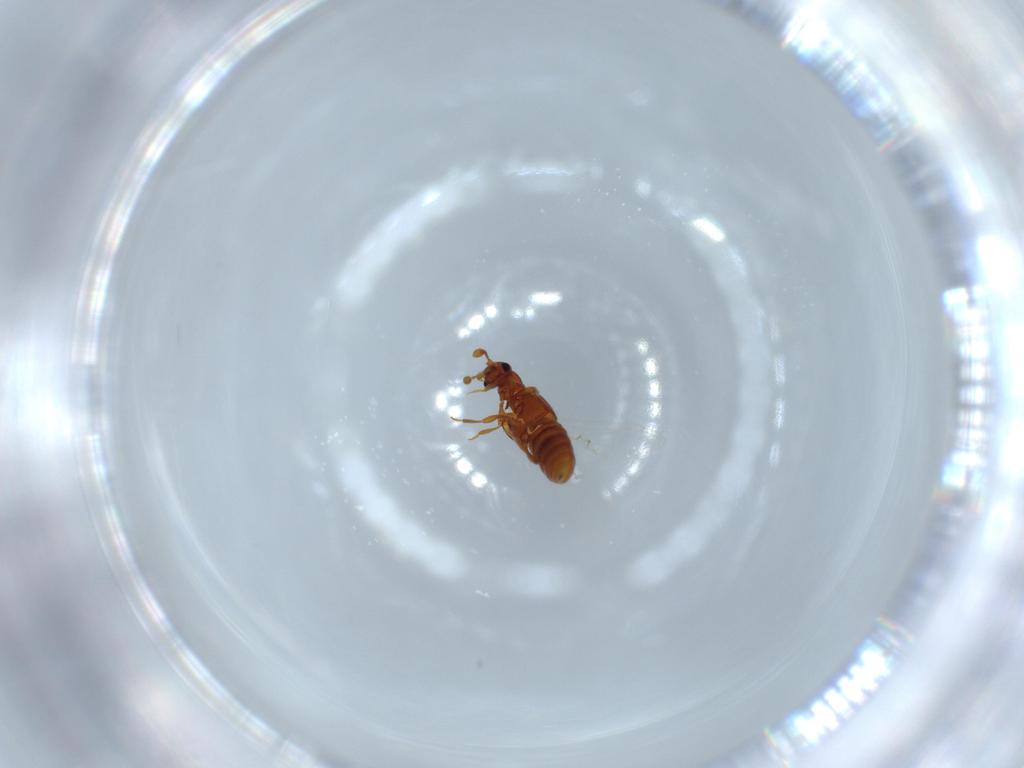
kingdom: Animalia
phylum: Arthropoda
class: Insecta
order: Coleoptera
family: Staphylinidae
